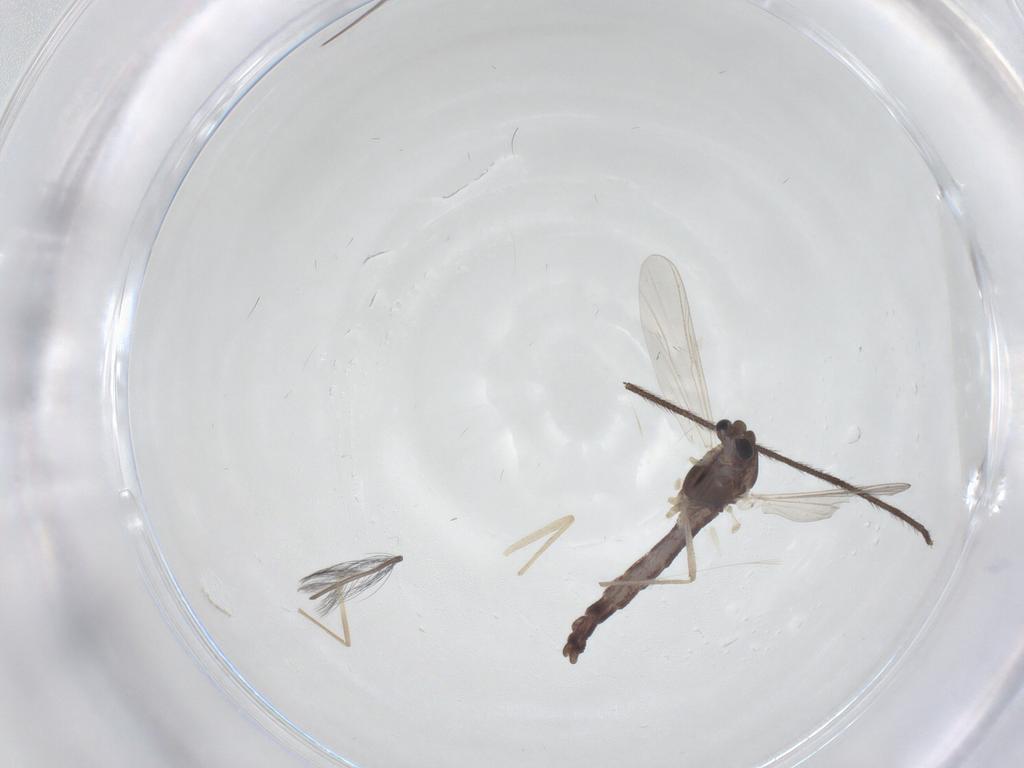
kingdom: Animalia
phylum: Arthropoda
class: Insecta
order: Diptera
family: Chironomidae
